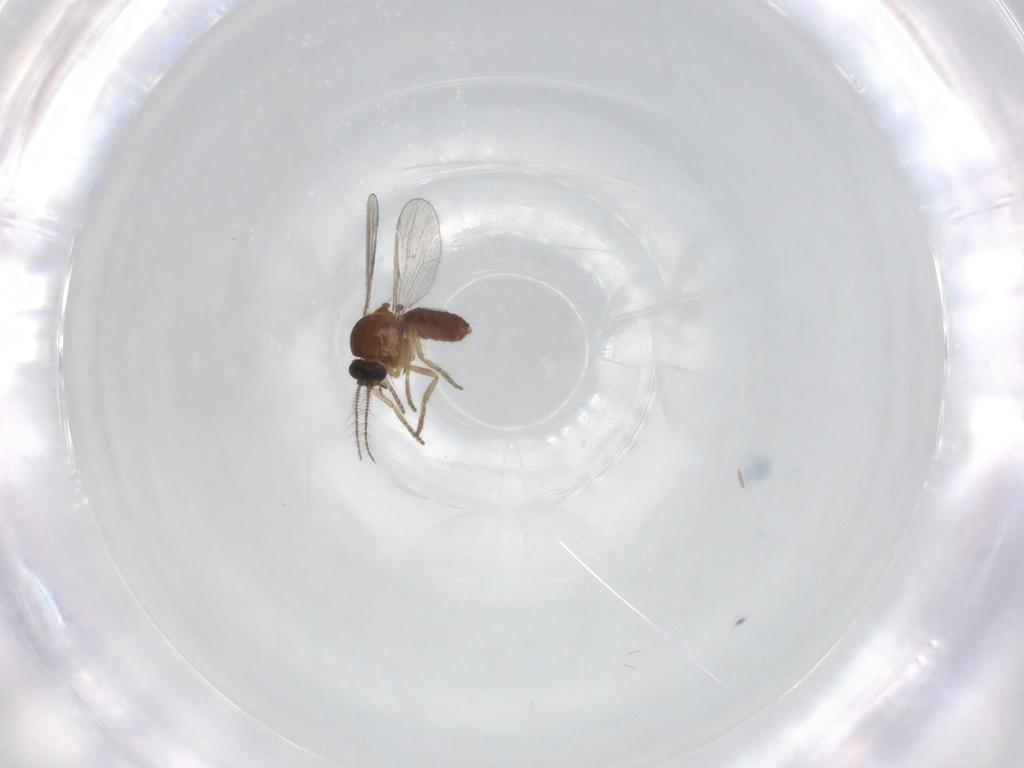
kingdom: Animalia
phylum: Arthropoda
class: Insecta
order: Diptera
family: Ceratopogonidae
